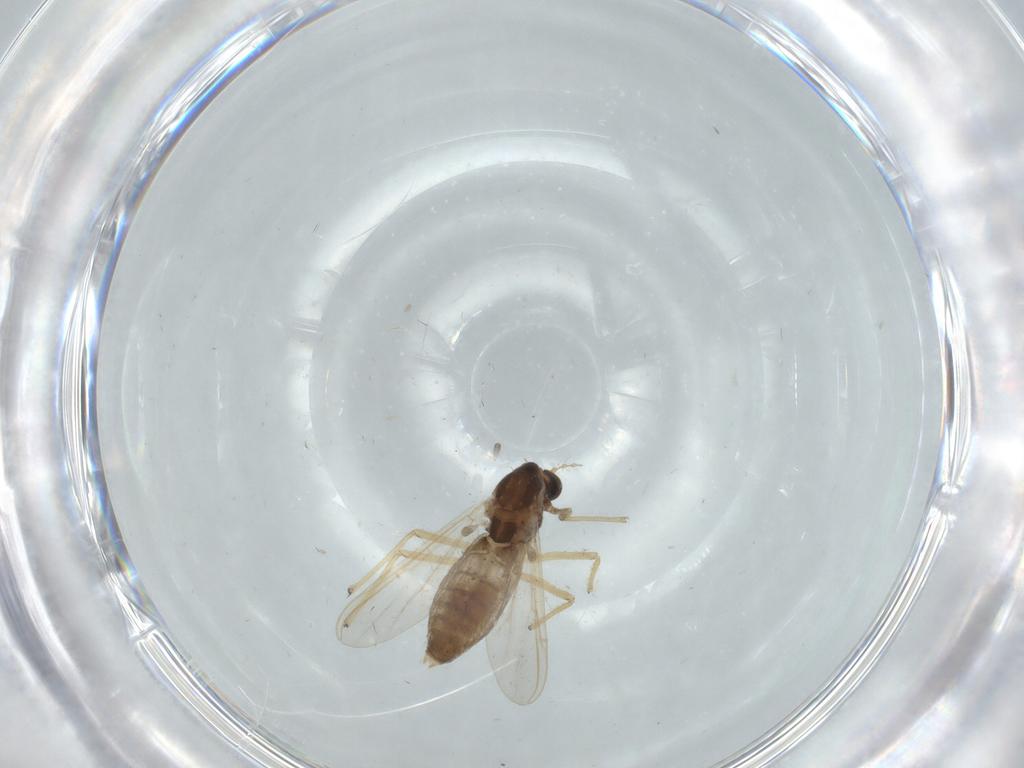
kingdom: Animalia
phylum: Arthropoda
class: Insecta
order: Diptera
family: Chironomidae
